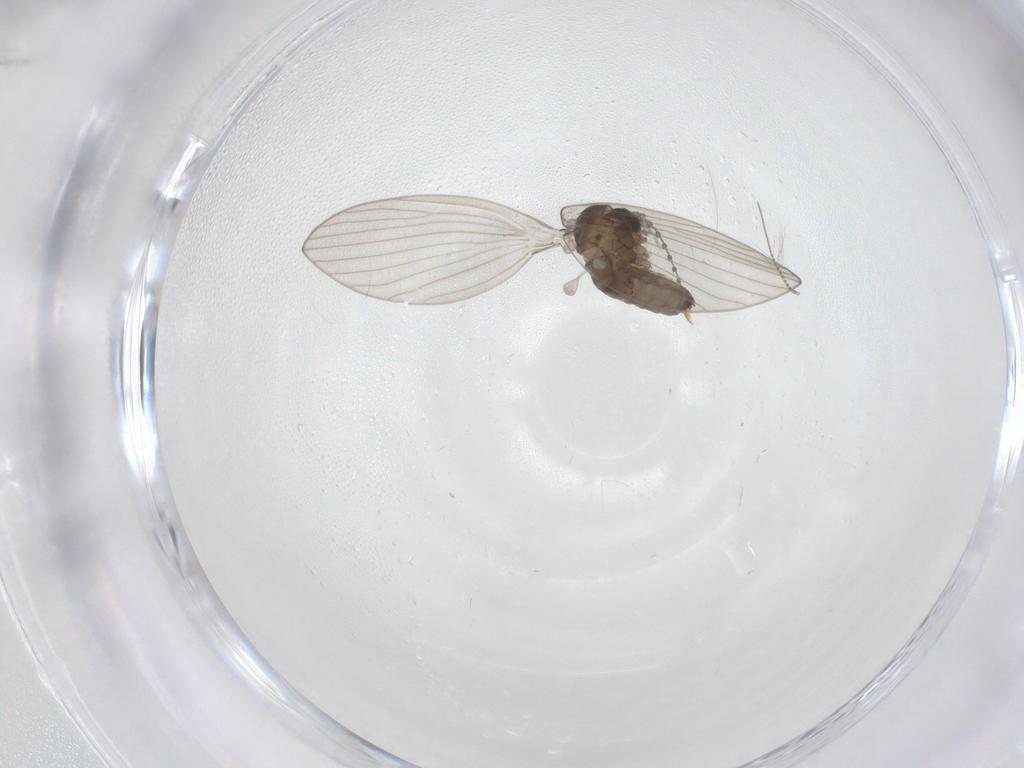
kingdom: Animalia
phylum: Arthropoda
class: Insecta
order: Diptera
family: Psychodidae
